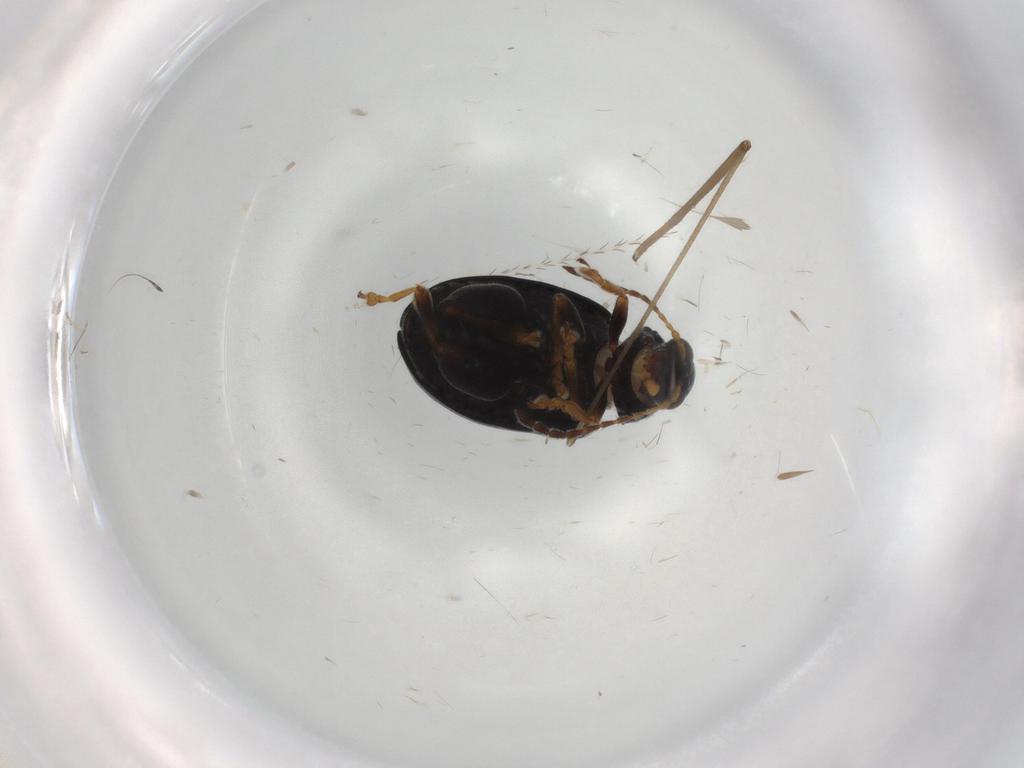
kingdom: Animalia
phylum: Arthropoda
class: Insecta
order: Coleoptera
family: Chrysomelidae
